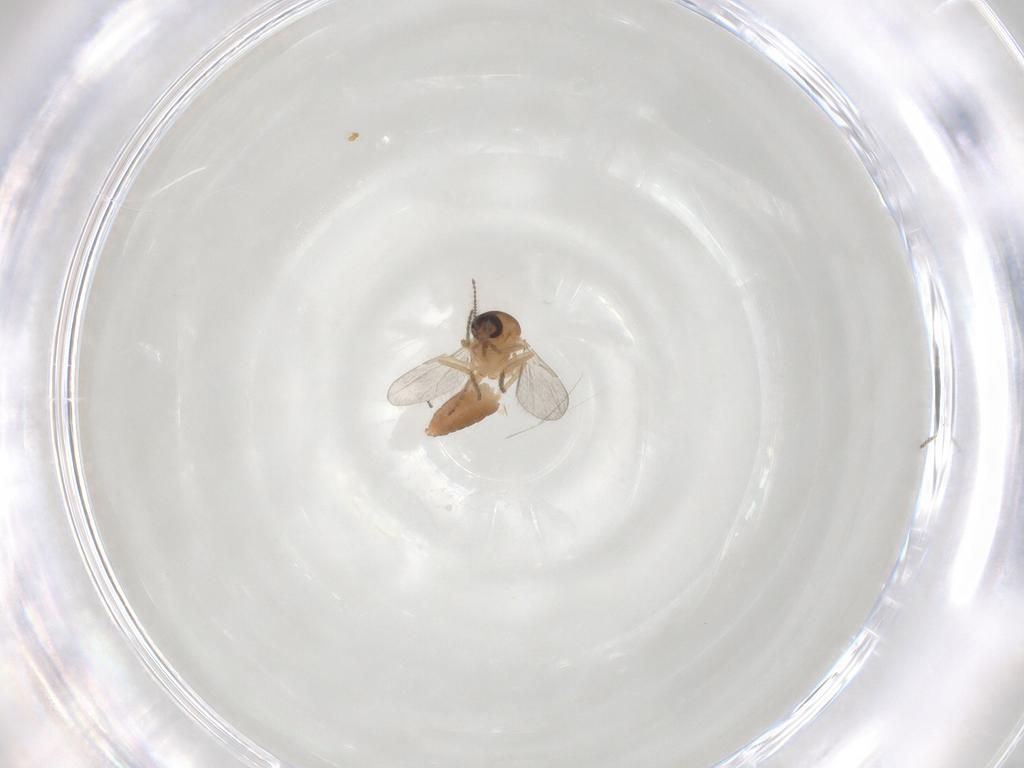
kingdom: Animalia
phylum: Arthropoda
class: Insecta
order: Diptera
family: Ceratopogonidae
